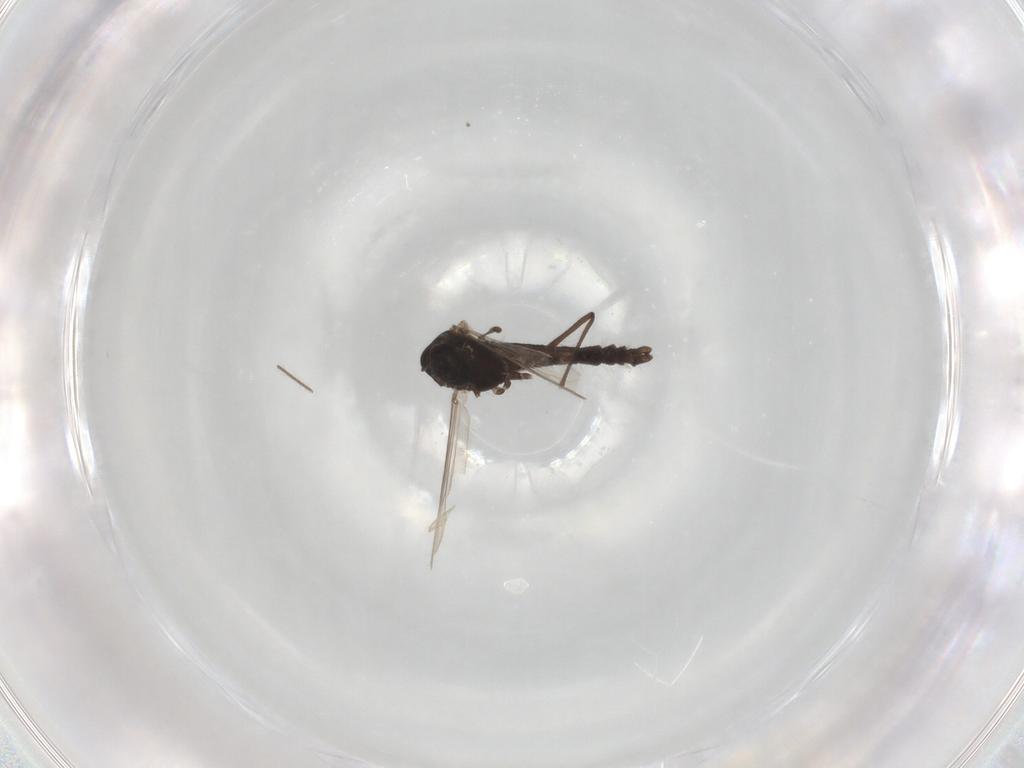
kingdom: Animalia
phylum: Arthropoda
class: Insecta
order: Diptera
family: Chironomidae
